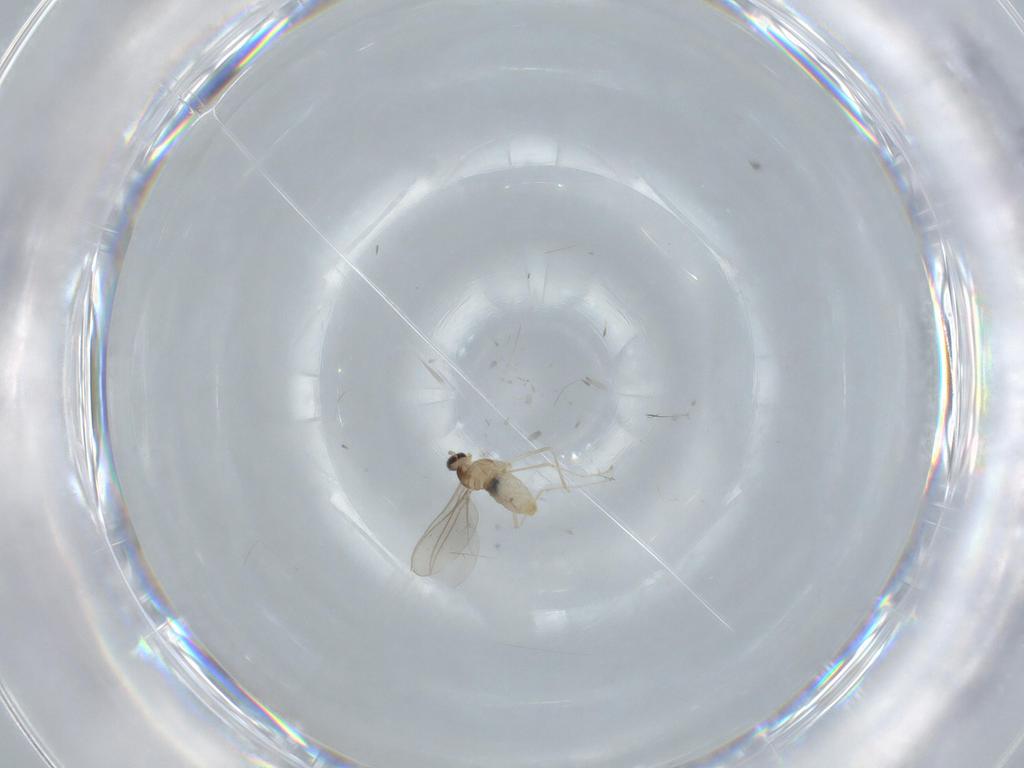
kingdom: Animalia
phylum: Arthropoda
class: Insecta
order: Diptera
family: Cecidomyiidae
